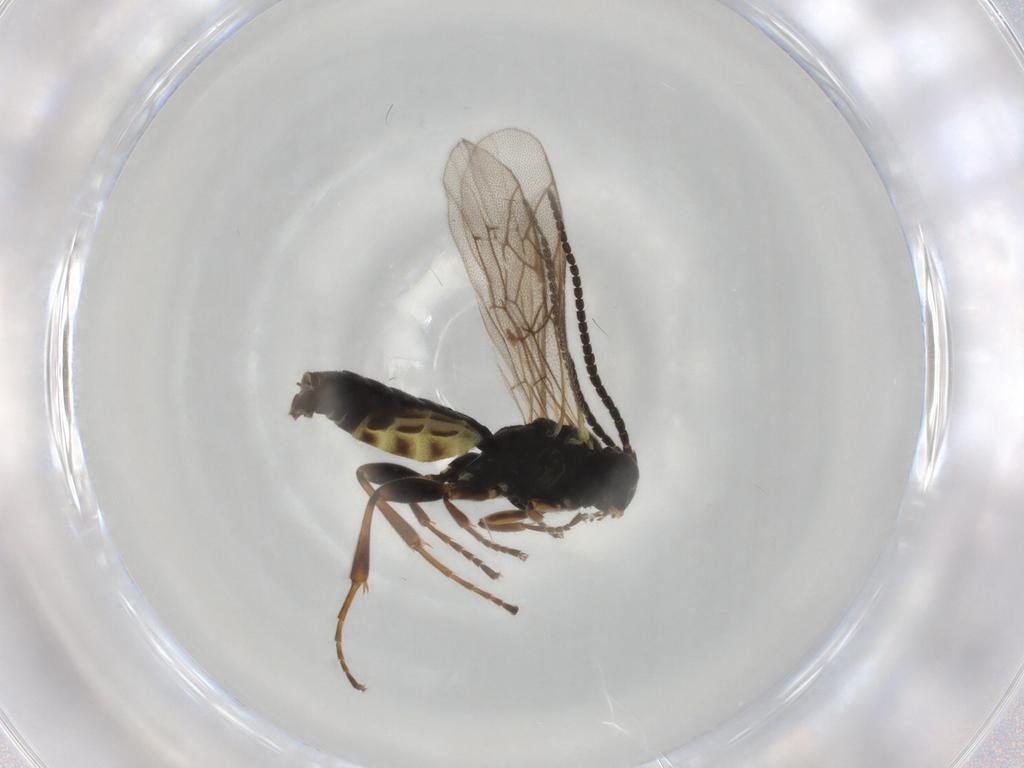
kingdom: Animalia
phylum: Arthropoda
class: Insecta
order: Hymenoptera
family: Ichneumonidae
